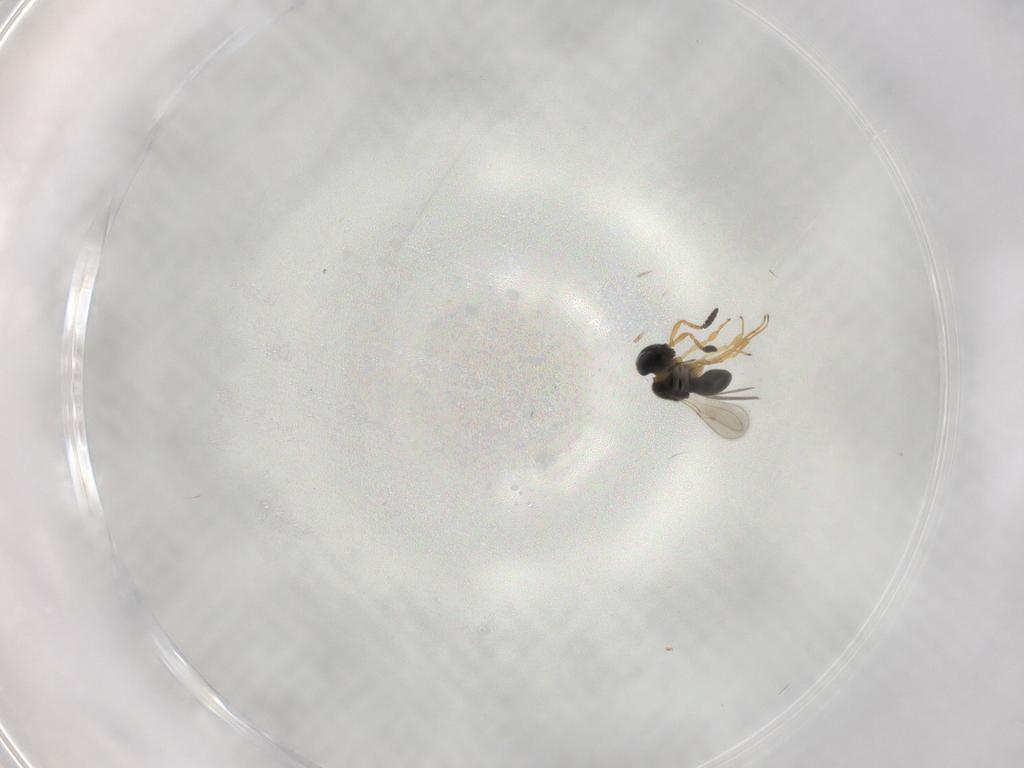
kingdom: Animalia
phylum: Arthropoda
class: Insecta
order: Hymenoptera
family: Scelionidae
